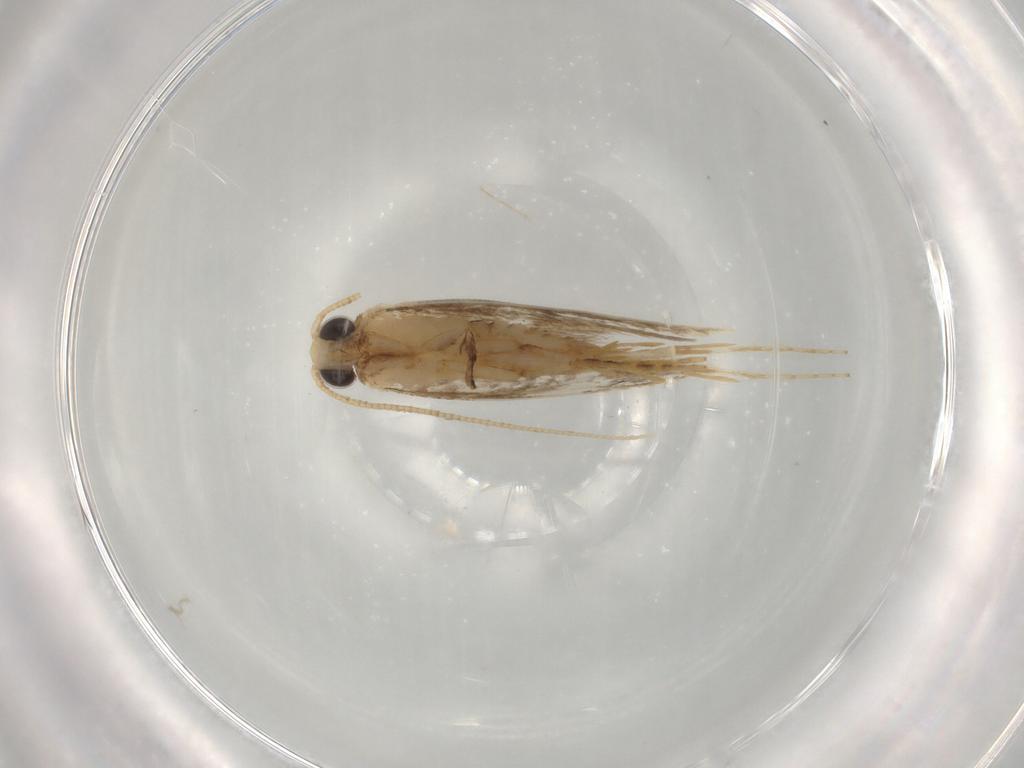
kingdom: Animalia
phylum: Arthropoda
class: Insecta
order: Lepidoptera
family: Tineidae
